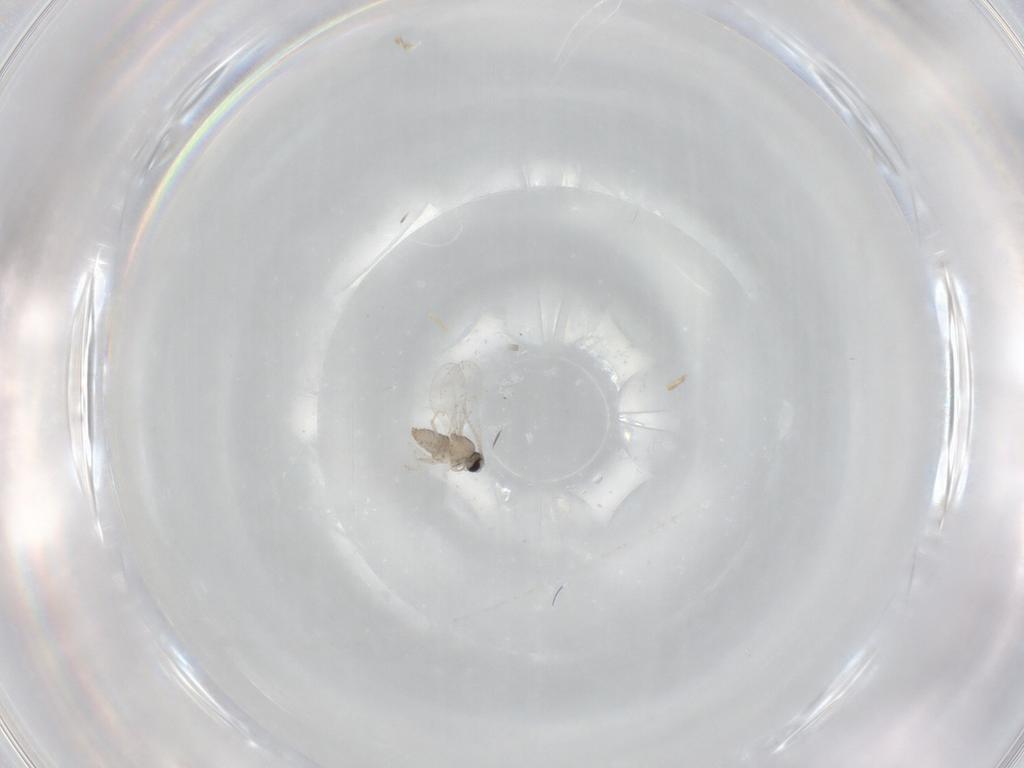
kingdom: Animalia
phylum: Arthropoda
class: Insecta
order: Diptera
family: Cecidomyiidae
